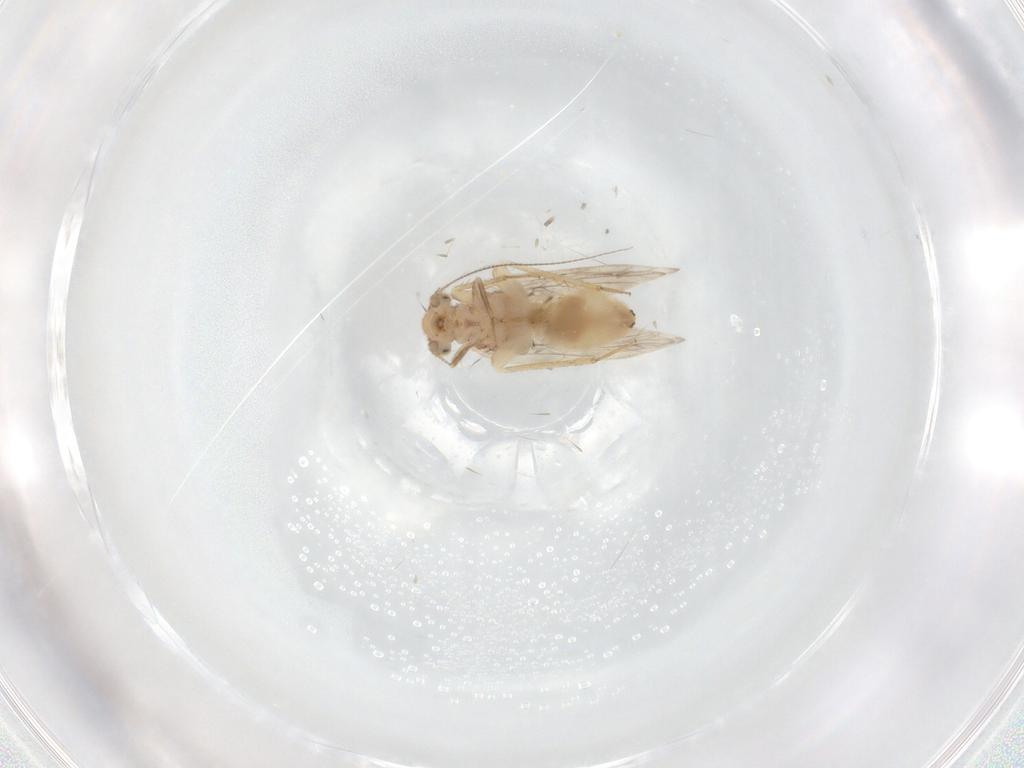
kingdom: Animalia
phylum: Arthropoda
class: Insecta
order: Psocodea
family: Lepidopsocidae
